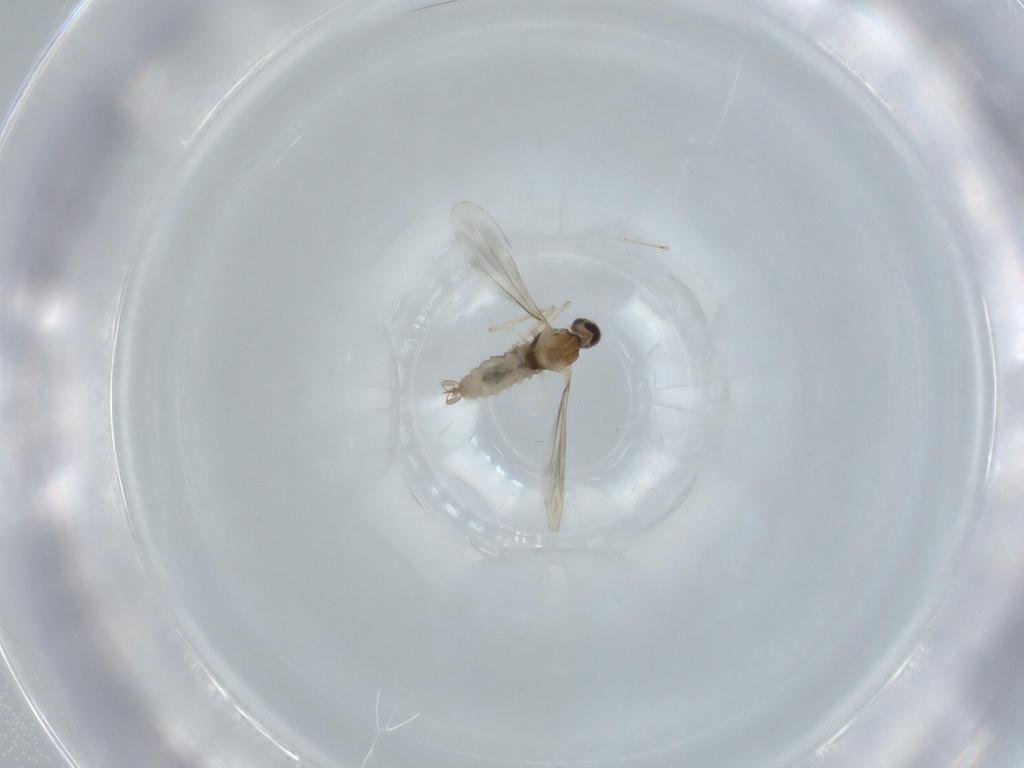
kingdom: Animalia
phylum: Arthropoda
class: Insecta
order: Diptera
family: Cecidomyiidae
